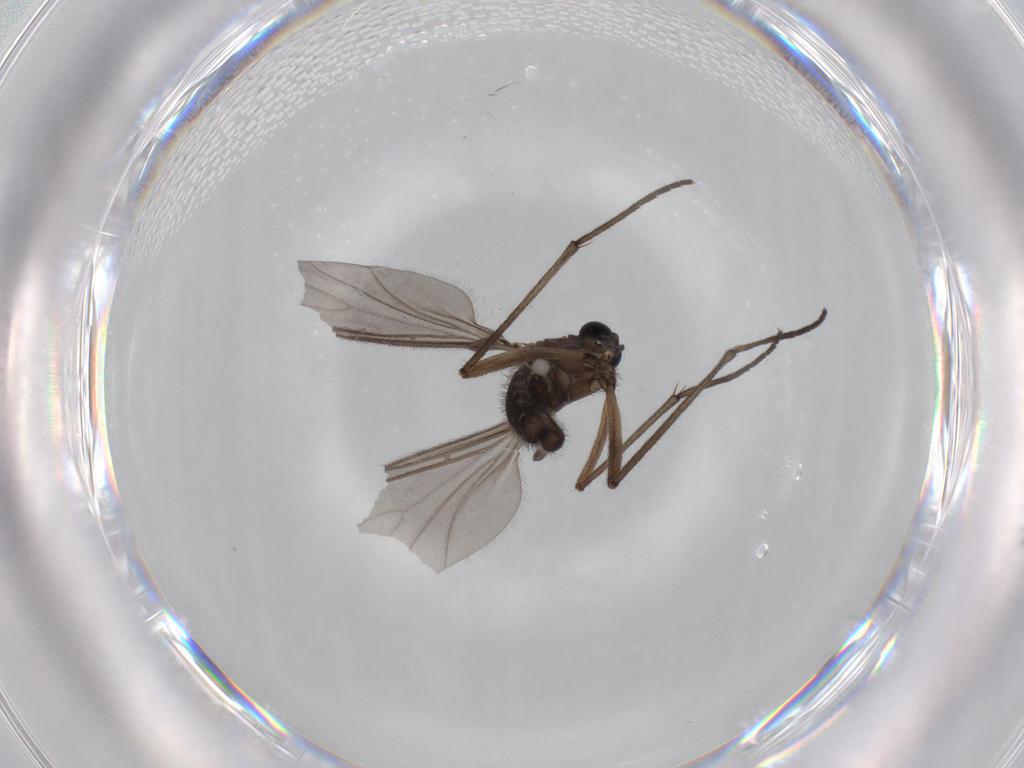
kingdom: Animalia
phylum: Arthropoda
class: Insecta
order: Diptera
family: Sciaridae
